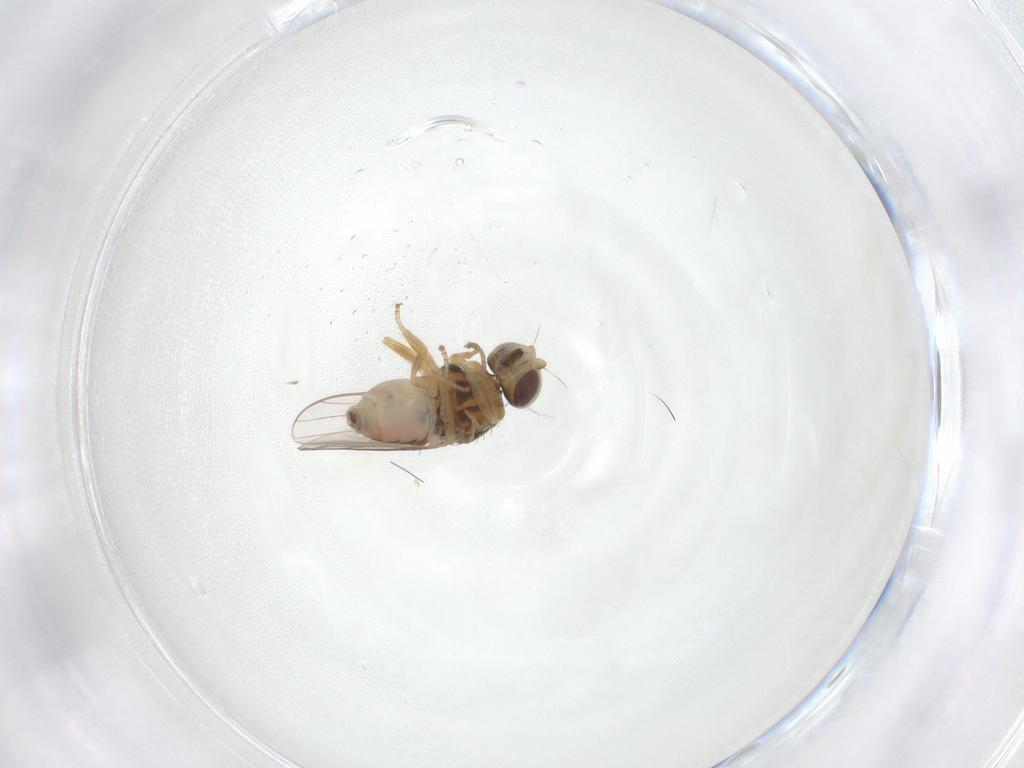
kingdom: Animalia
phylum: Arthropoda
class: Insecta
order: Diptera
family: Chloropidae
